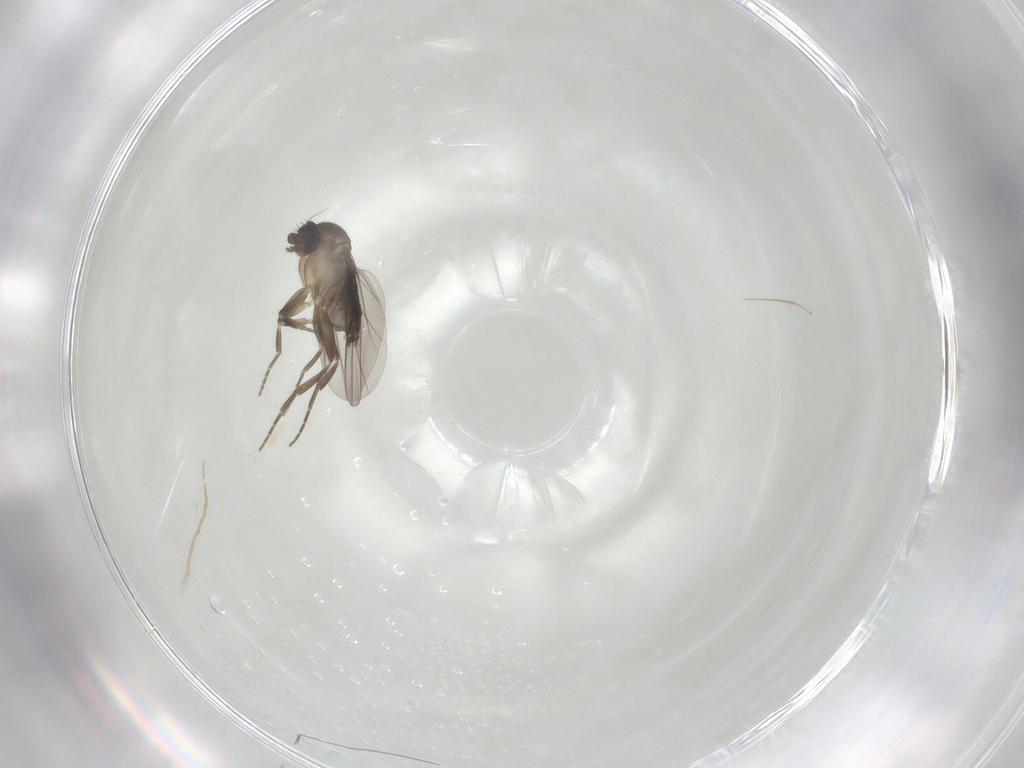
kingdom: Animalia
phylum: Arthropoda
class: Insecta
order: Diptera
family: Phoridae
